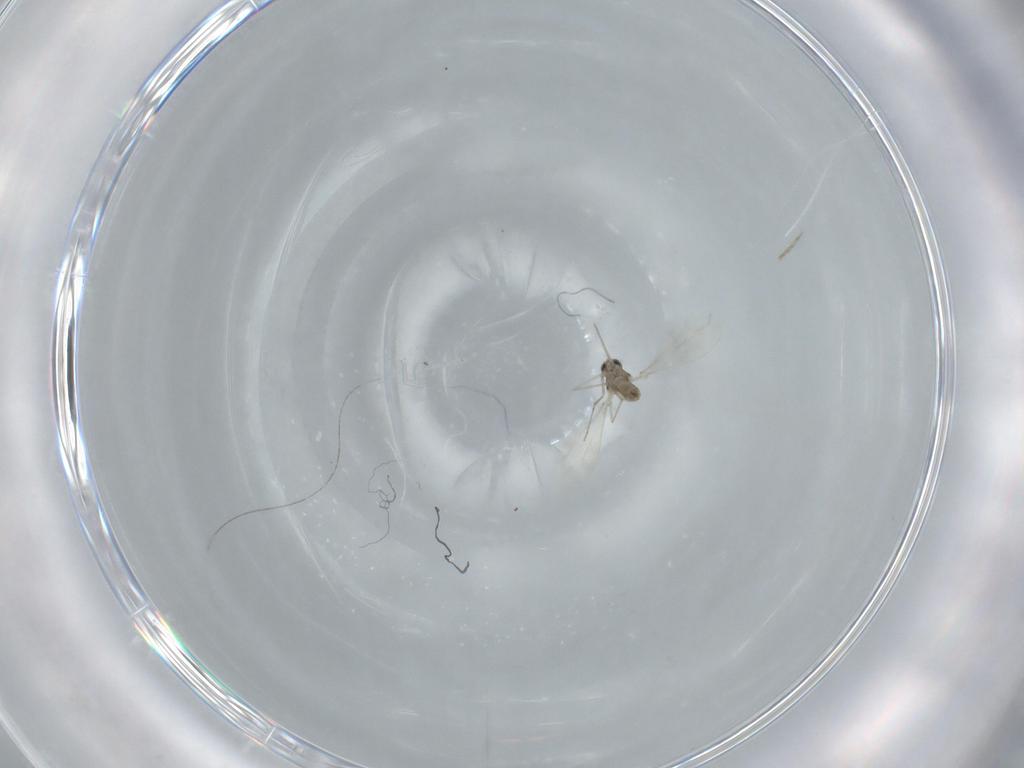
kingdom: Animalia
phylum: Arthropoda
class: Insecta
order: Diptera
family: Cecidomyiidae
